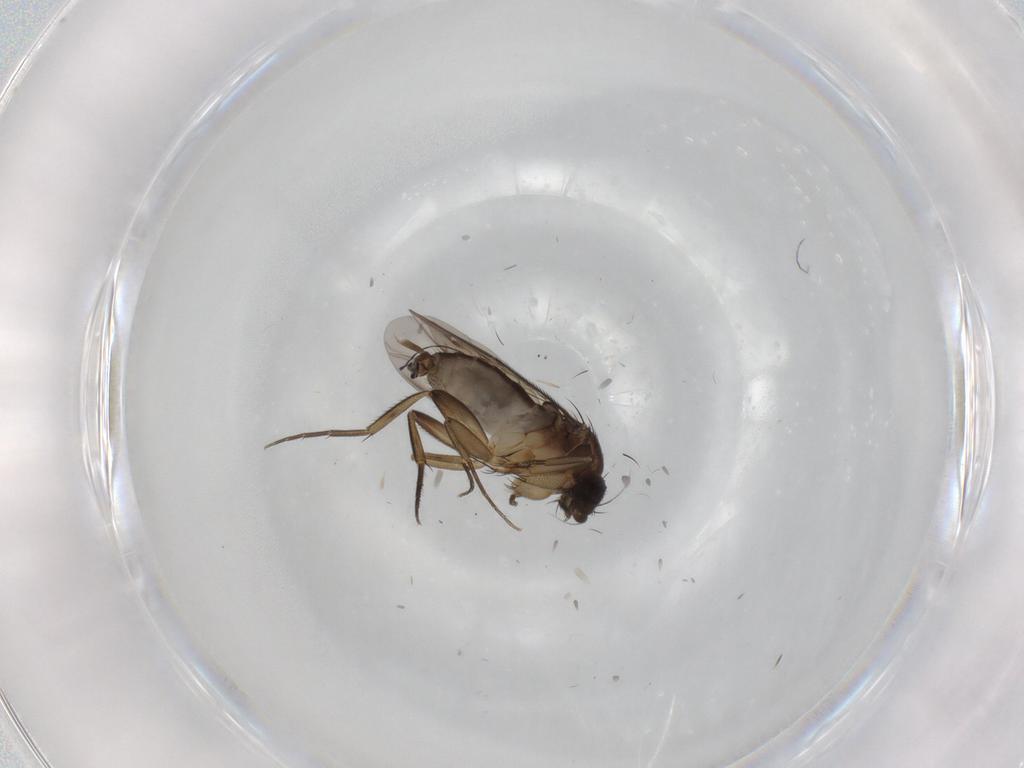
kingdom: Animalia
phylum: Arthropoda
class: Insecta
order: Diptera
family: Phoridae
